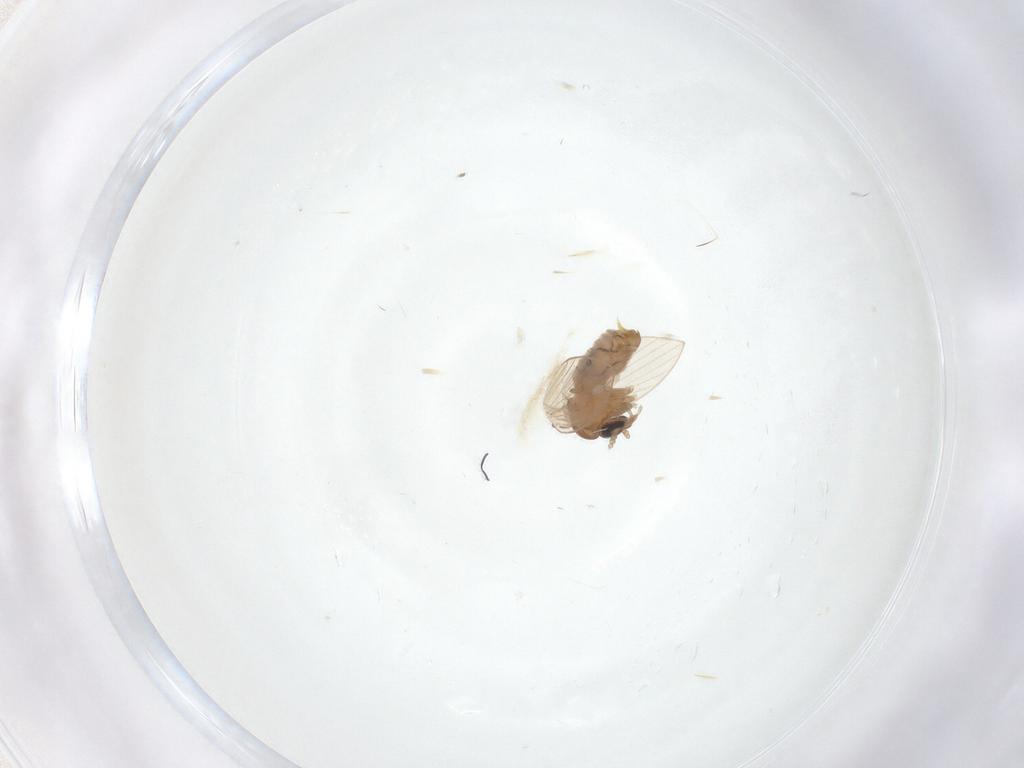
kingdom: Animalia
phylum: Arthropoda
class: Insecta
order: Diptera
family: Psychodidae
